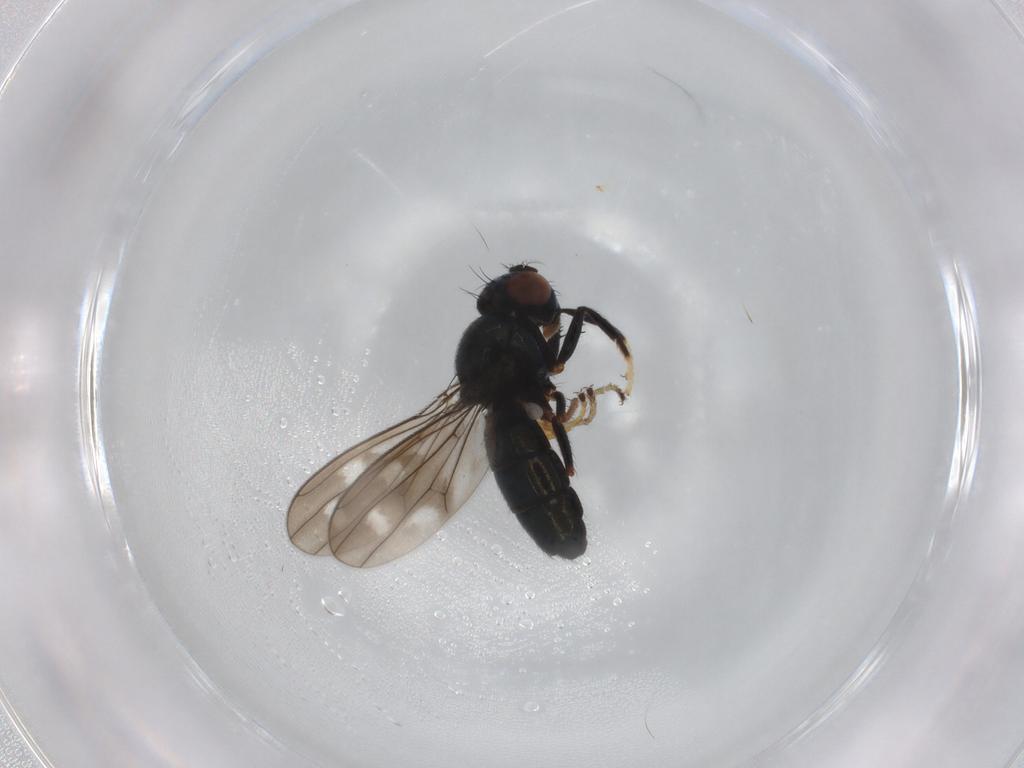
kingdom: Animalia
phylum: Arthropoda
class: Insecta
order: Diptera
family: Ephydridae
